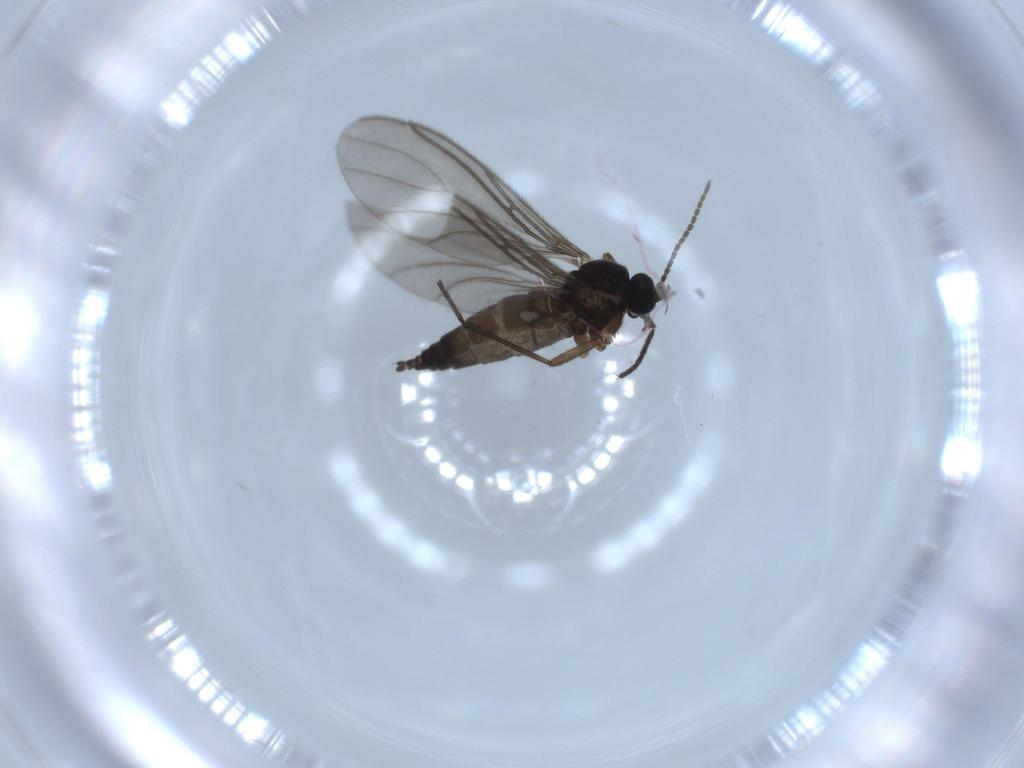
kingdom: Animalia
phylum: Arthropoda
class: Insecta
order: Diptera
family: Sciaridae
